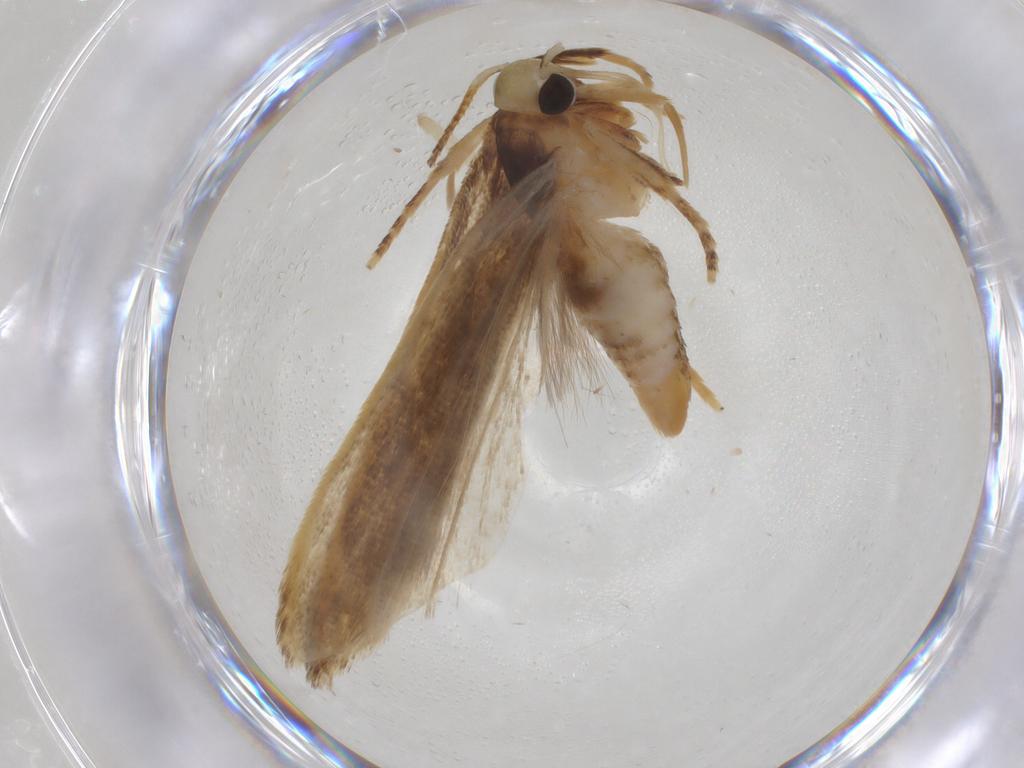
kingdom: Animalia
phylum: Arthropoda
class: Insecta
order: Lepidoptera
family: Gelechiidae
